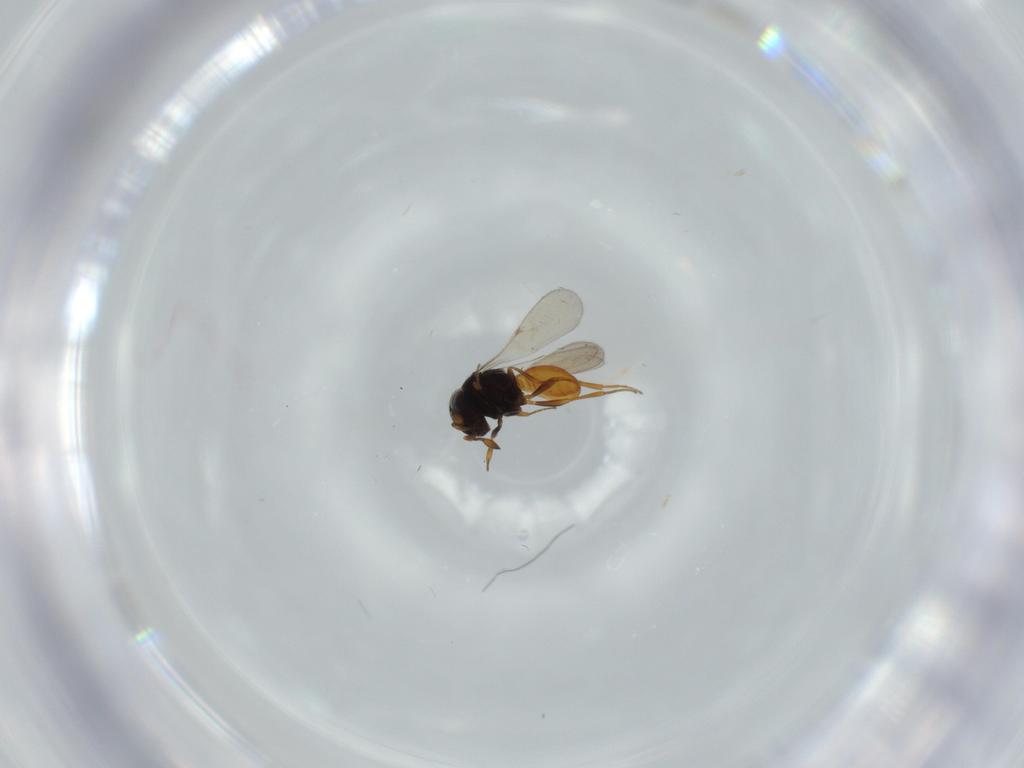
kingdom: Animalia
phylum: Arthropoda
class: Insecta
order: Hymenoptera
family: Scelionidae
